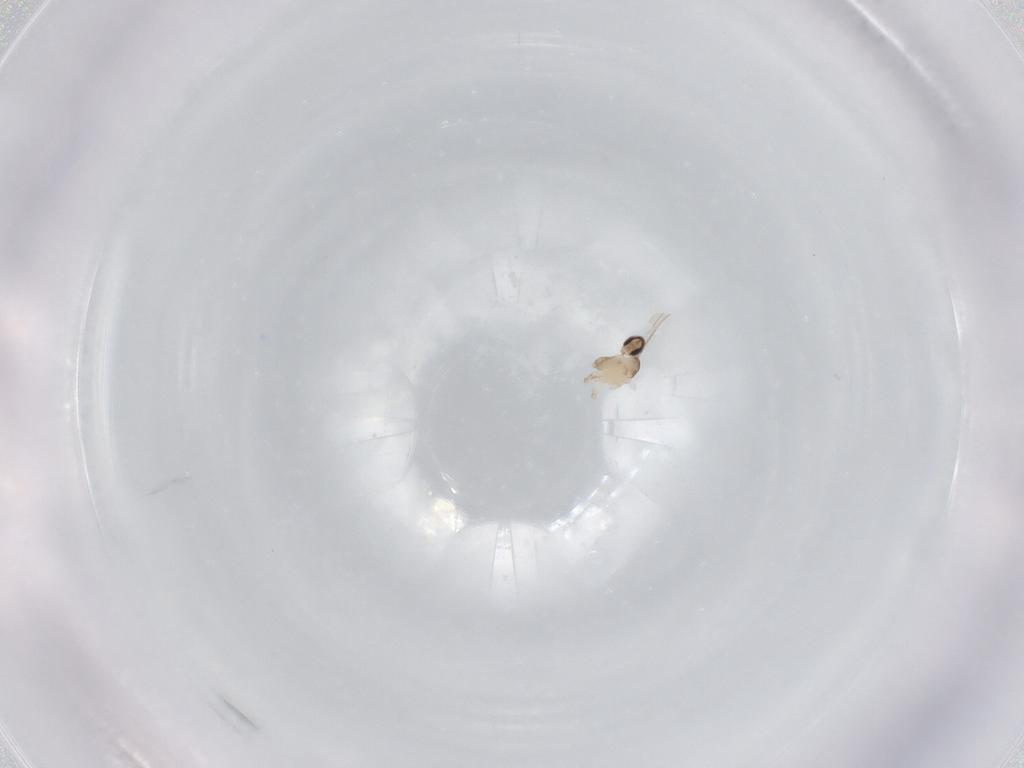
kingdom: Animalia
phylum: Arthropoda
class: Insecta
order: Diptera
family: Cecidomyiidae
